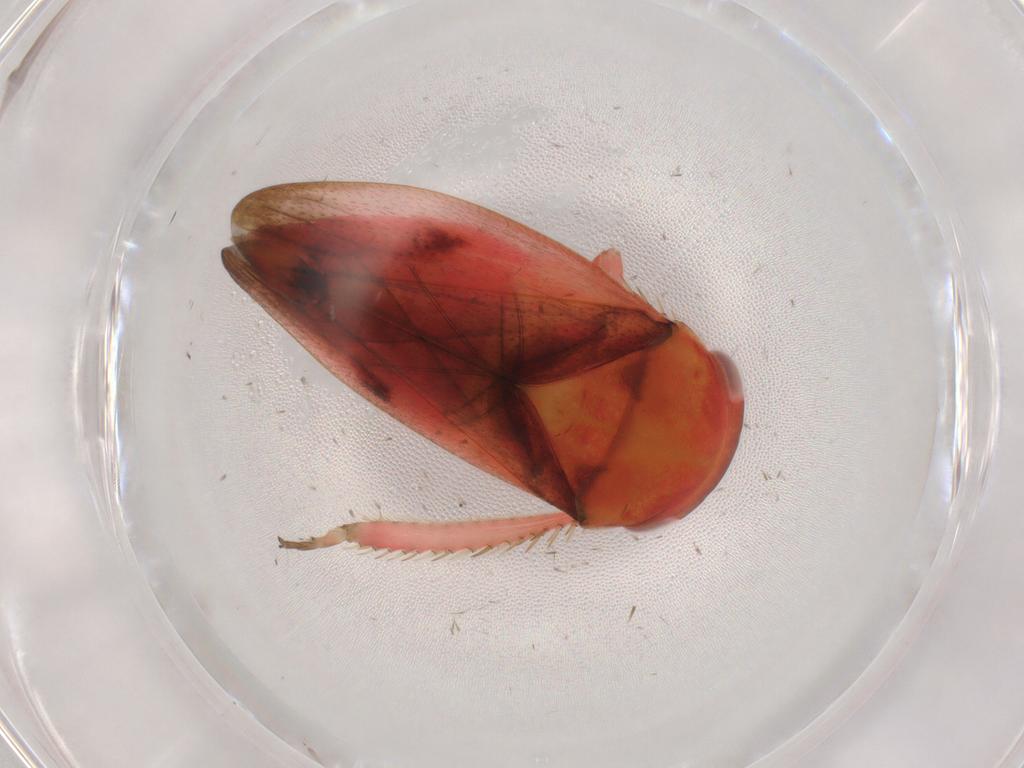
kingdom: Animalia
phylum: Arthropoda
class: Insecta
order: Hemiptera
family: Cicadellidae
